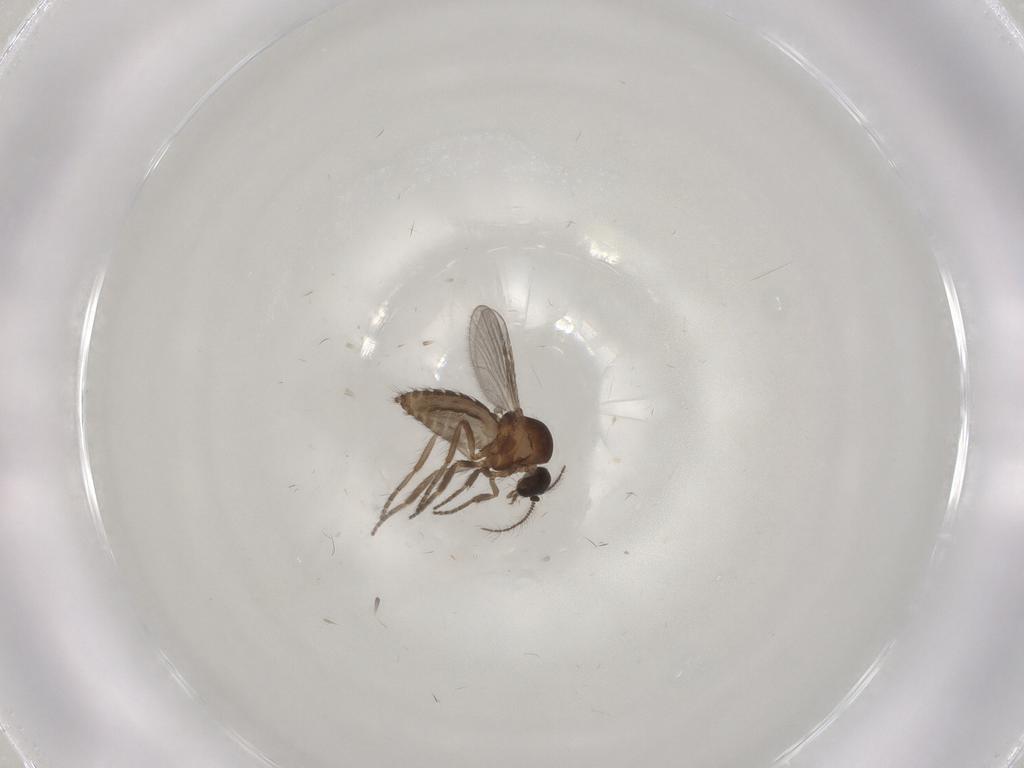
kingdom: Animalia
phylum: Arthropoda
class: Insecta
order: Diptera
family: Ceratopogonidae
